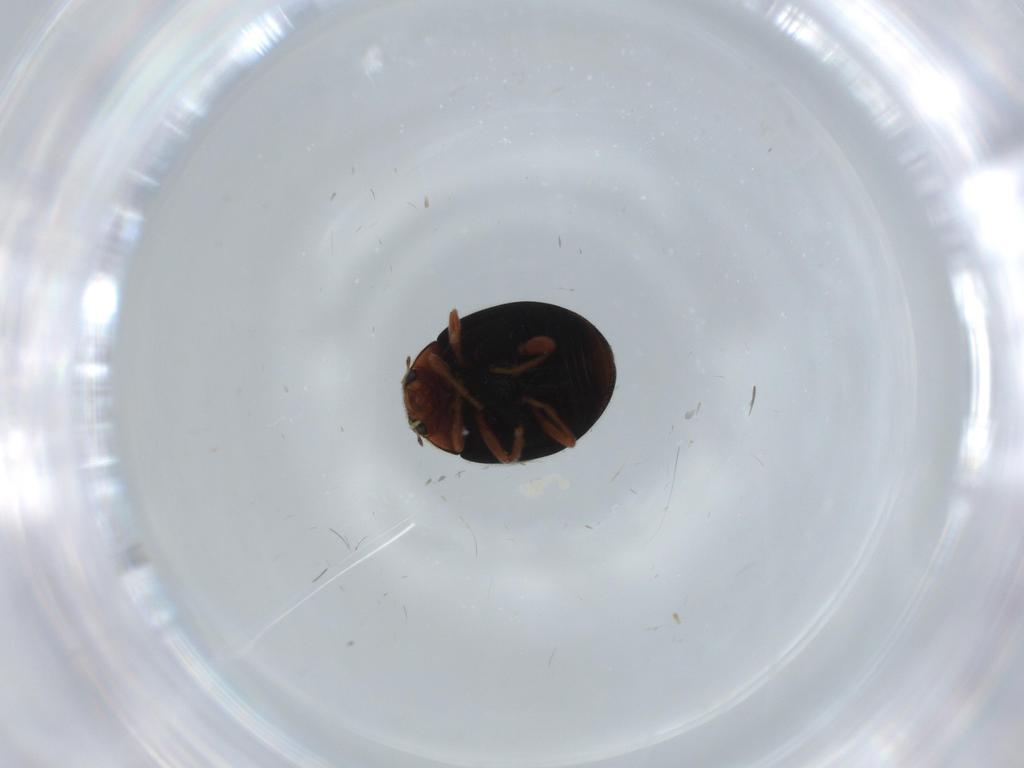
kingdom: Animalia
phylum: Arthropoda
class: Insecta
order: Coleoptera
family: Coccinellidae
